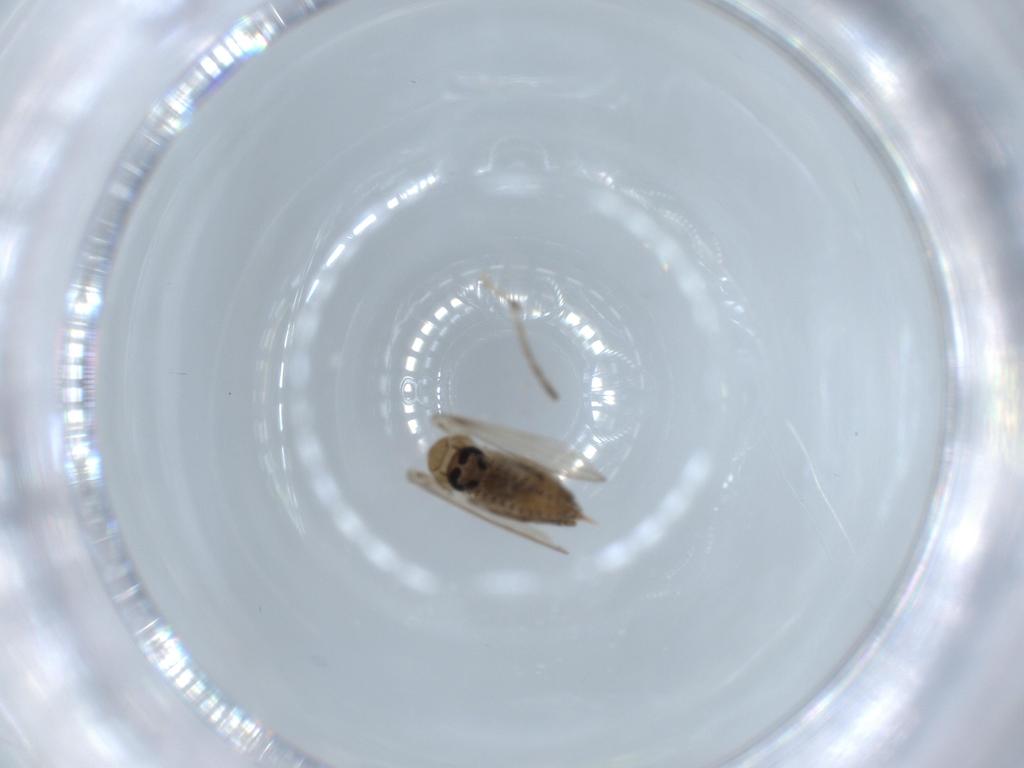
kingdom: Animalia
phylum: Arthropoda
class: Insecta
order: Diptera
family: Psychodidae
